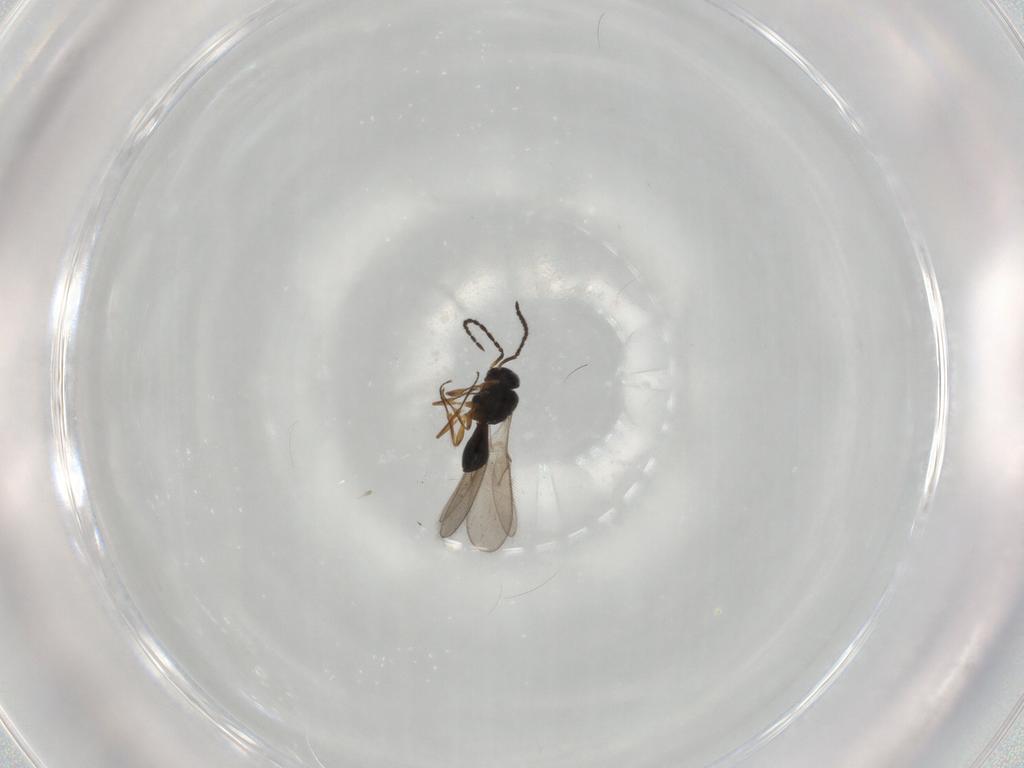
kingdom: Animalia
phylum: Arthropoda
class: Insecta
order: Hymenoptera
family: Scelionidae
